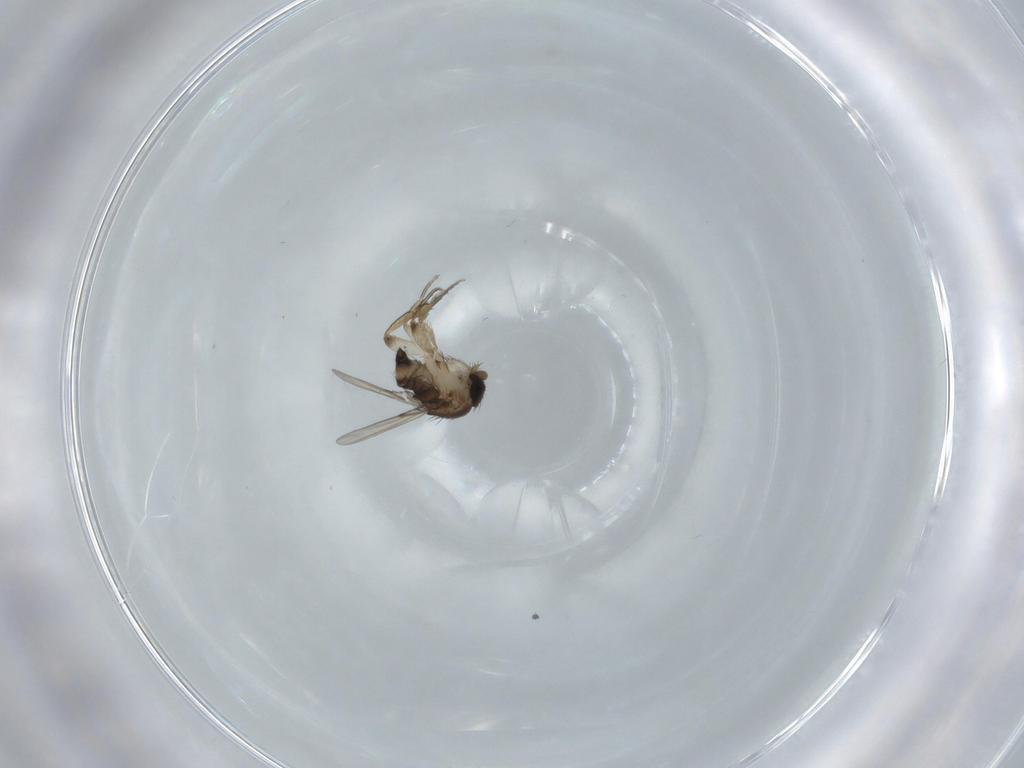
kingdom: Animalia
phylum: Arthropoda
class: Insecta
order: Diptera
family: Phoridae
